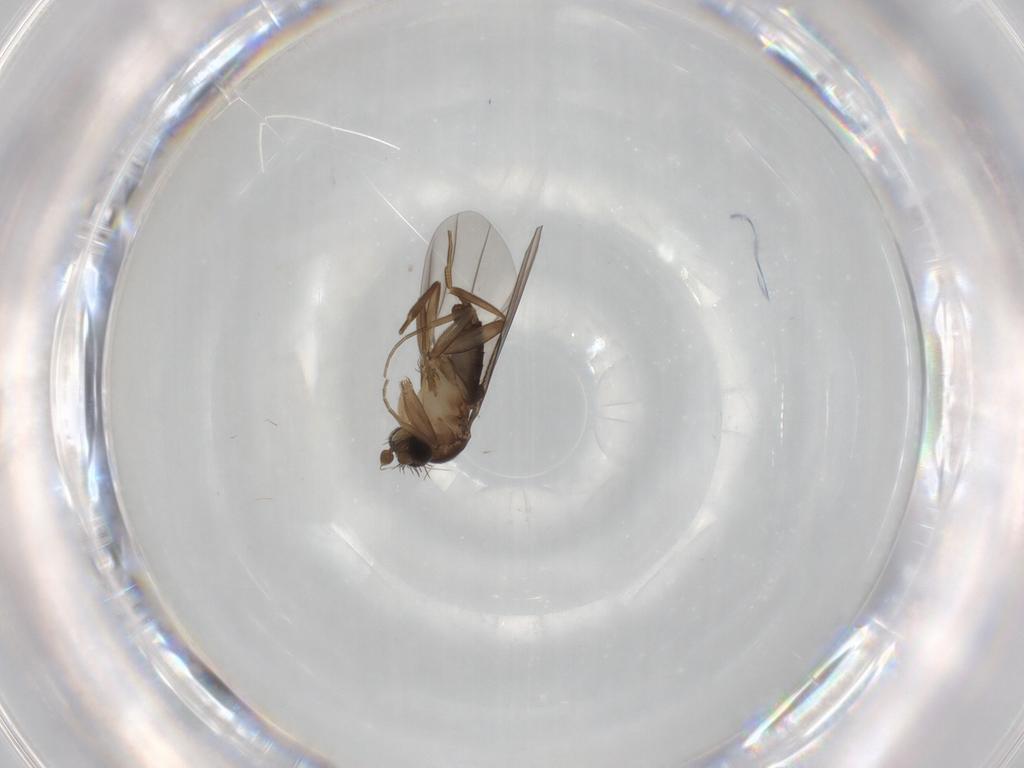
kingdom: Animalia
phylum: Arthropoda
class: Insecta
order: Diptera
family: Phoridae
